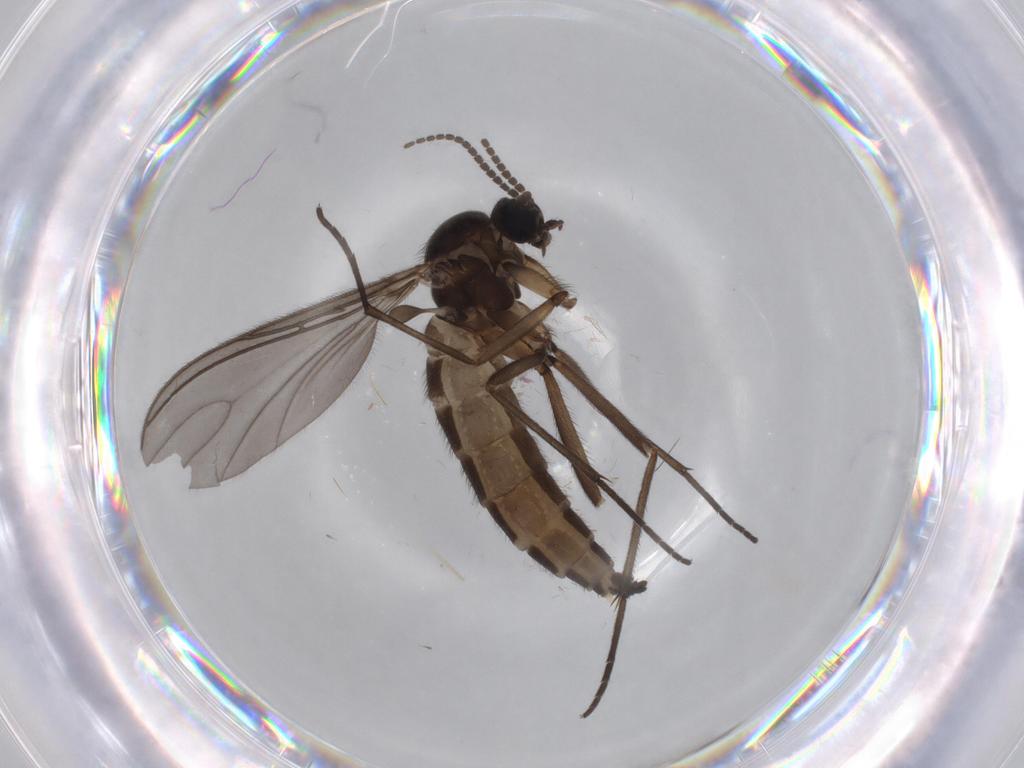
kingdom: Animalia
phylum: Arthropoda
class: Insecta
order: Diptera
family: Sciaridae
